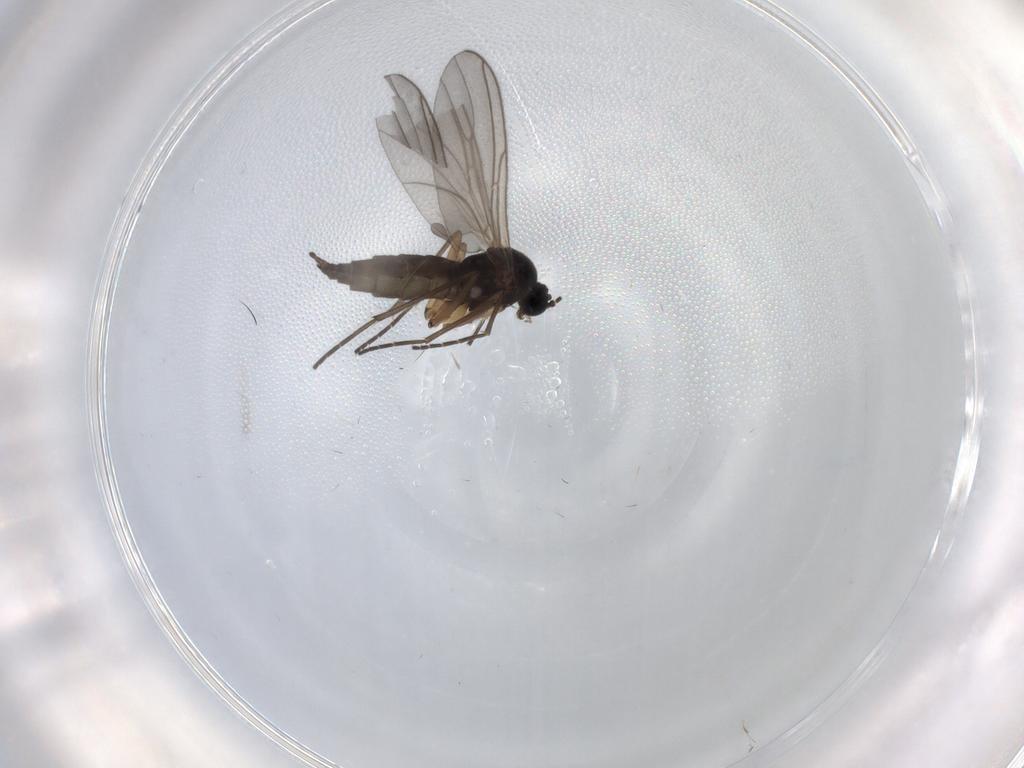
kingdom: Animalia
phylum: Arthropoda
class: Insecta
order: Diptera
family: Sciaridae
